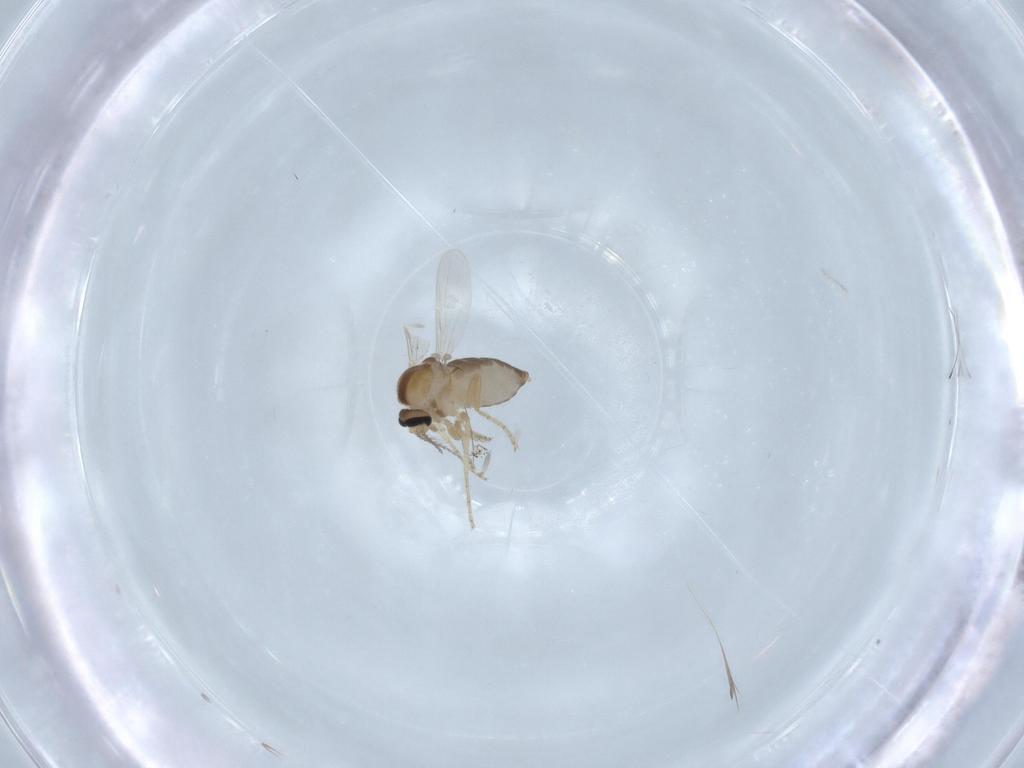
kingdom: Animalia
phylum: Arthropoda
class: Insecta
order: Diptera
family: Ceratopogonidae
